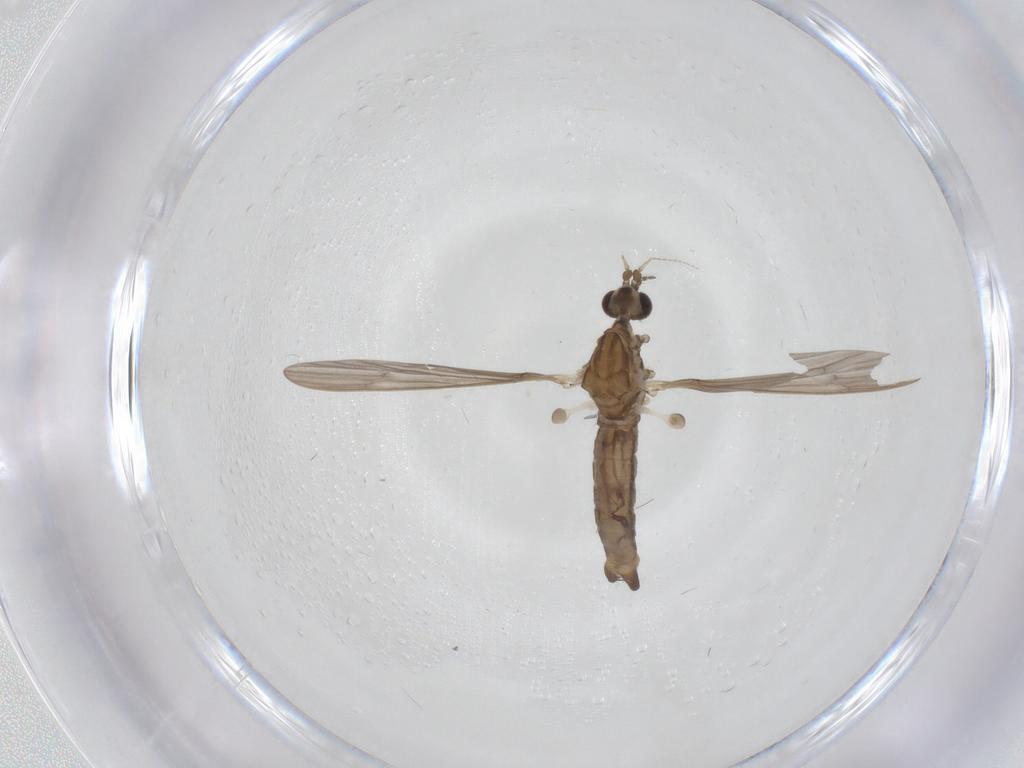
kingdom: Animalia
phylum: Arthropoda
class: Insecta
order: Diptera
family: Limoniidae
